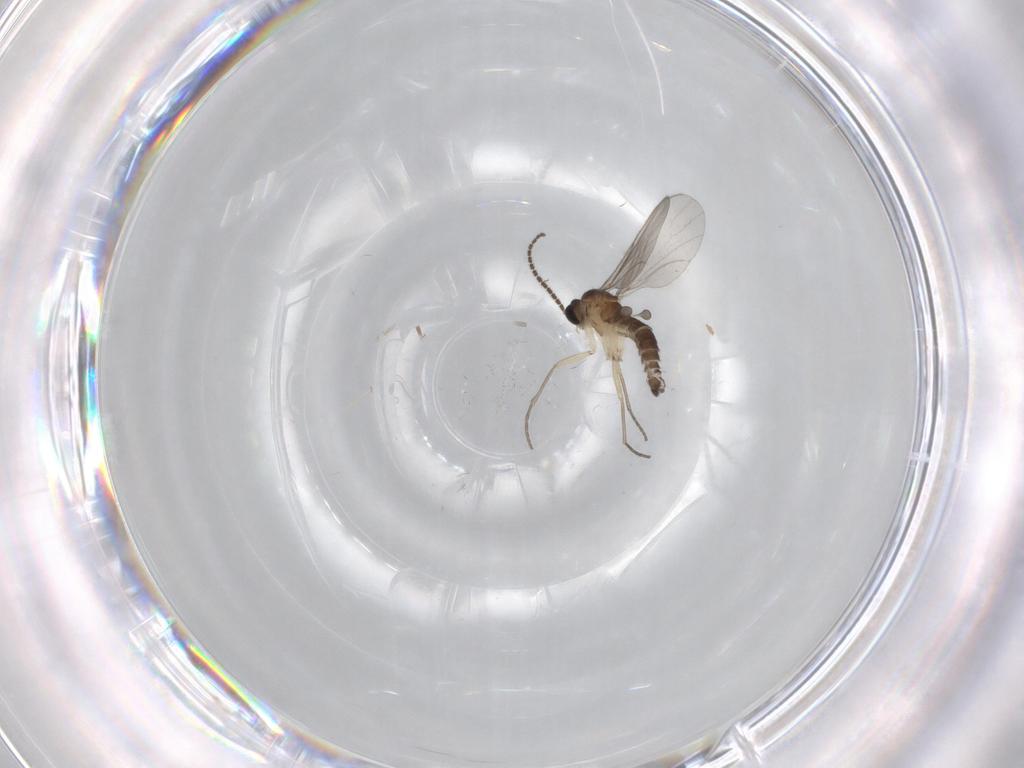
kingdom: Animalia
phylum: Arthropoda
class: Insecta
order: Diptera
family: Sciaridae
